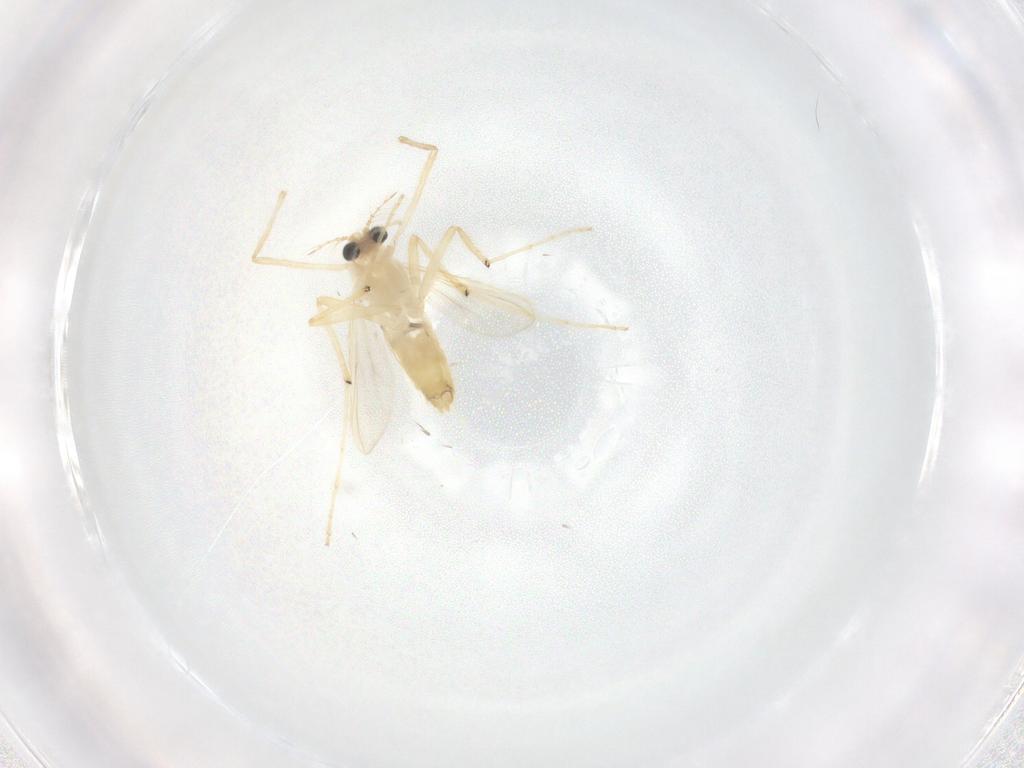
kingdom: Animalia
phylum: Arthropoda
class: Insecta
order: Diptera
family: Chironomidae
